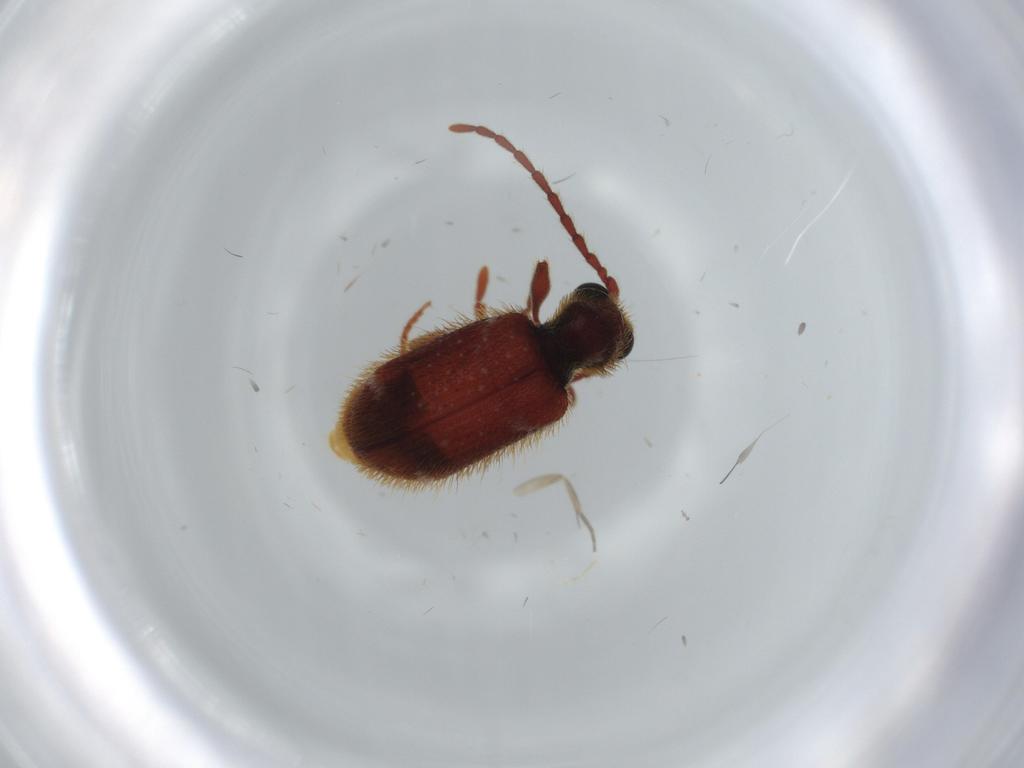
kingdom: Animalia
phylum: Arthropoda
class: Insecta
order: Coleoptera
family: Ptinidae
